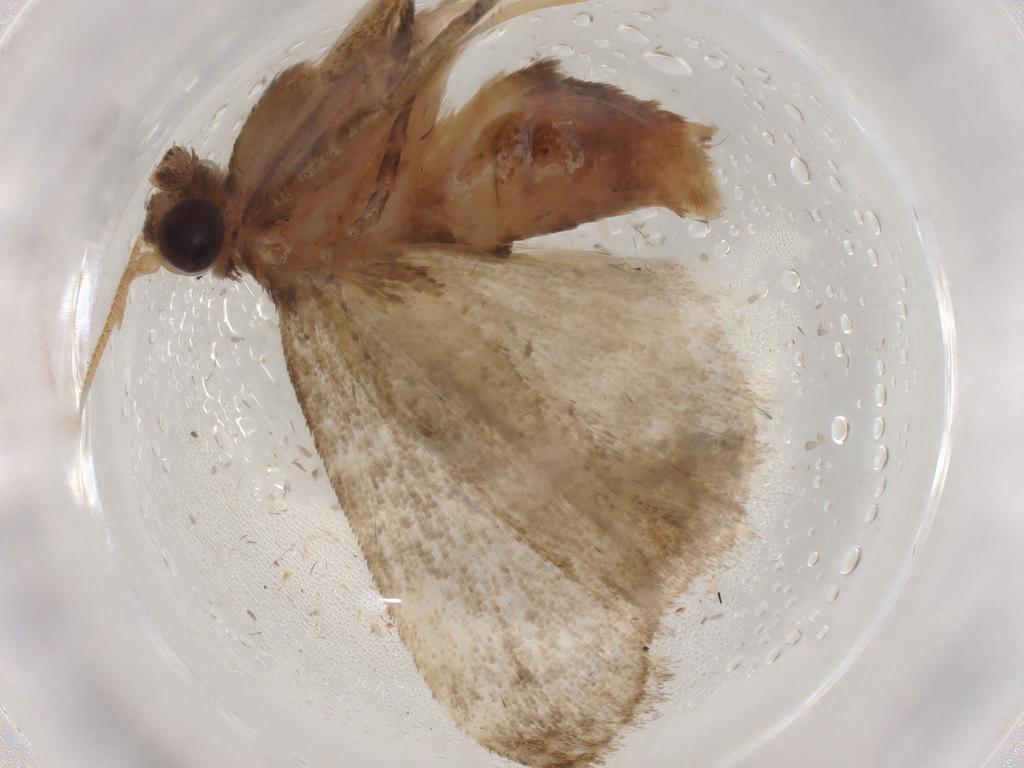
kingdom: Animalia
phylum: Arthropoda
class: Insecta
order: Lepidoptera
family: Pyralidae
